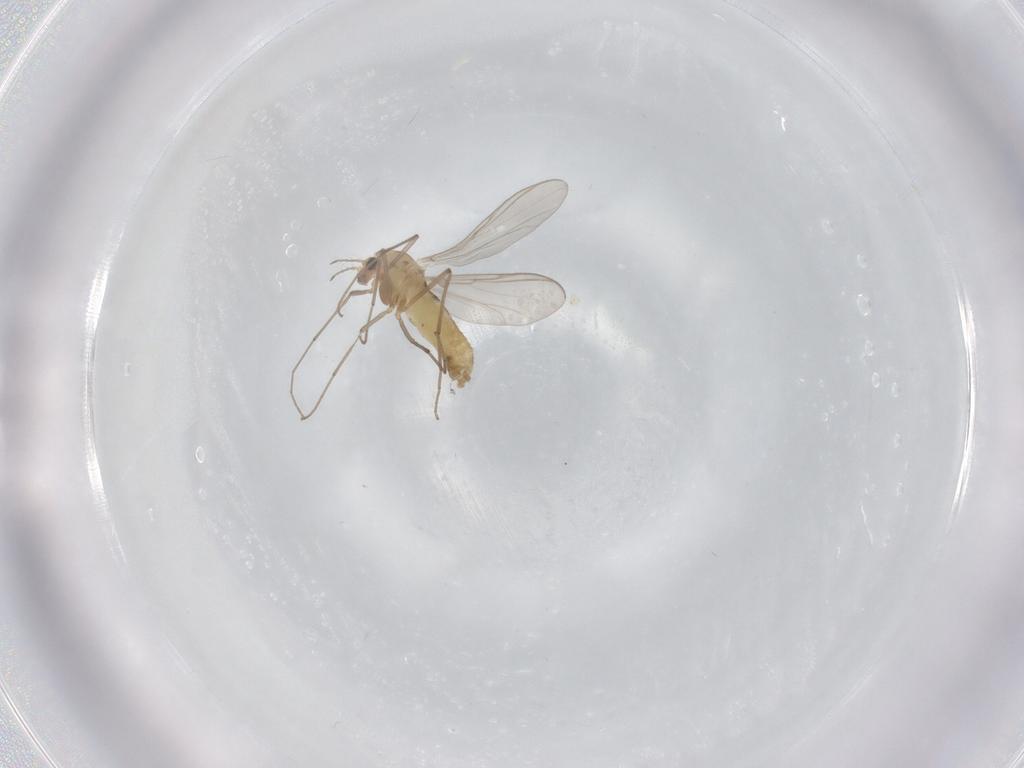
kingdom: Animalia
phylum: Arthropoda
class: Insecta
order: Diptera
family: Chironomidae
